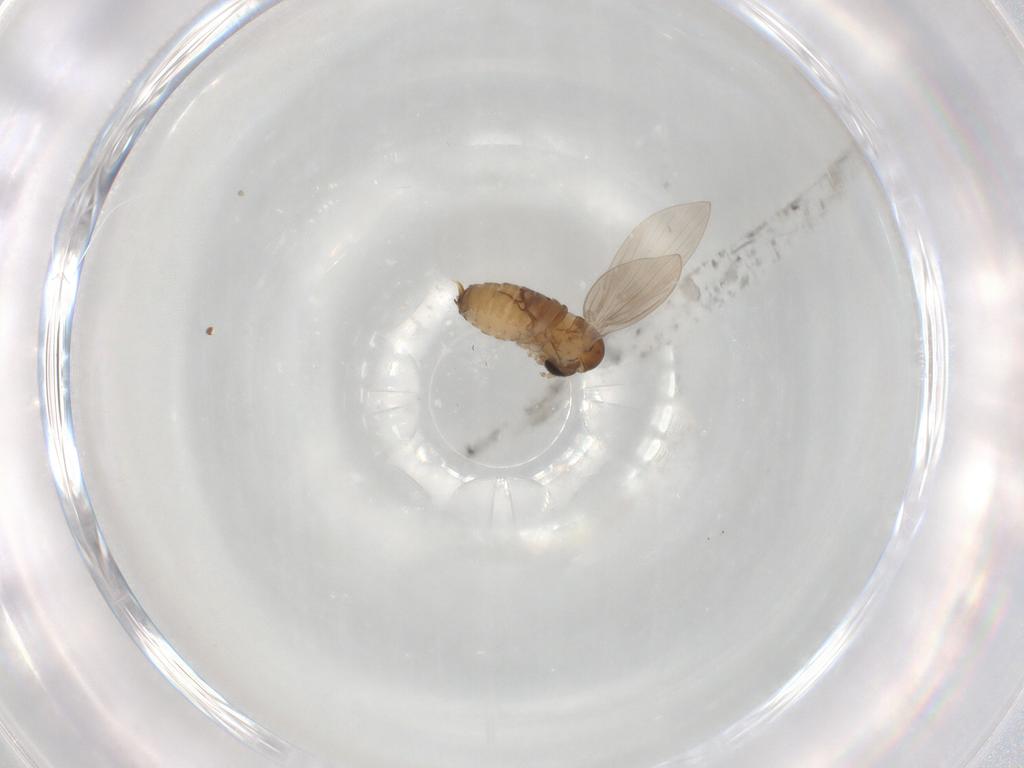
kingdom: Animalia
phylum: Arthropoda
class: Insecta
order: Diptera
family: Psychodidae
